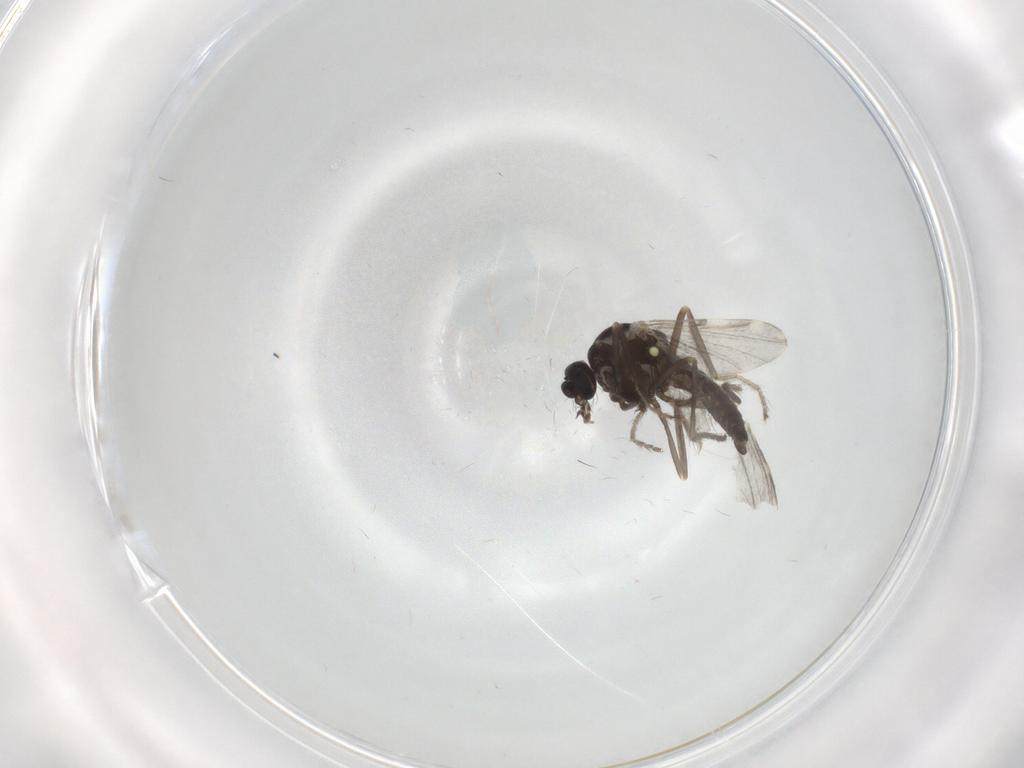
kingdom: Animalia
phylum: Arthropoda
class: Insecta
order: Diptera
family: Ceratopogonidae
